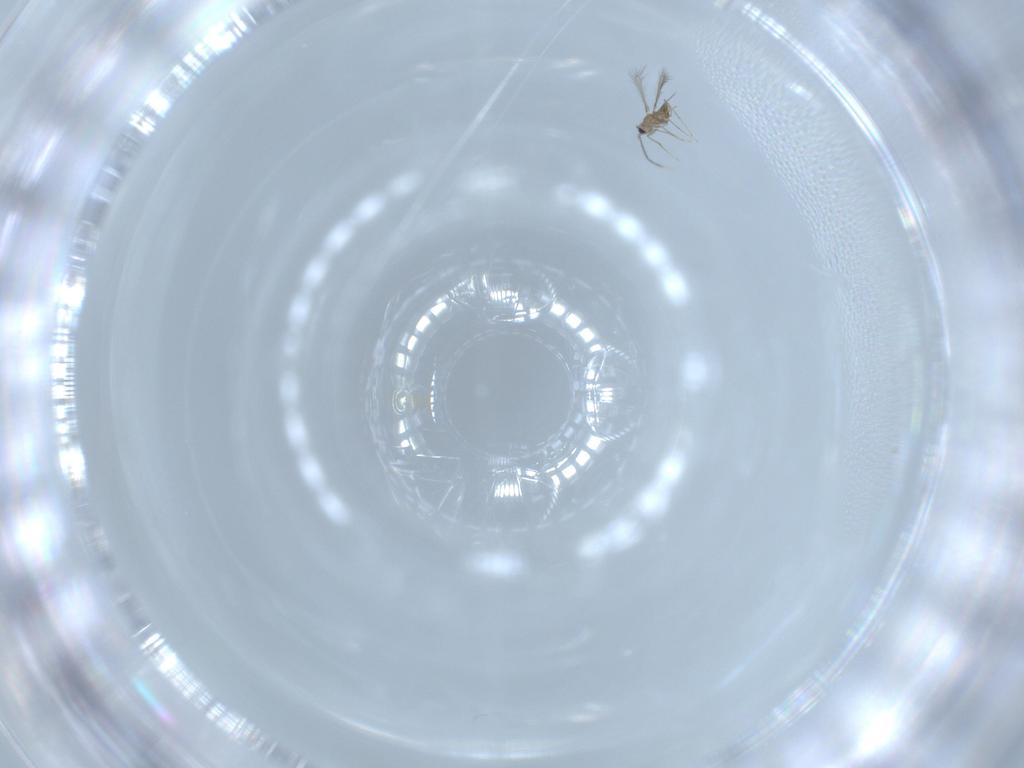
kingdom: Animalia
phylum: Arthropoda
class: Insecta
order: Hymenoptera
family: Mymaridae
